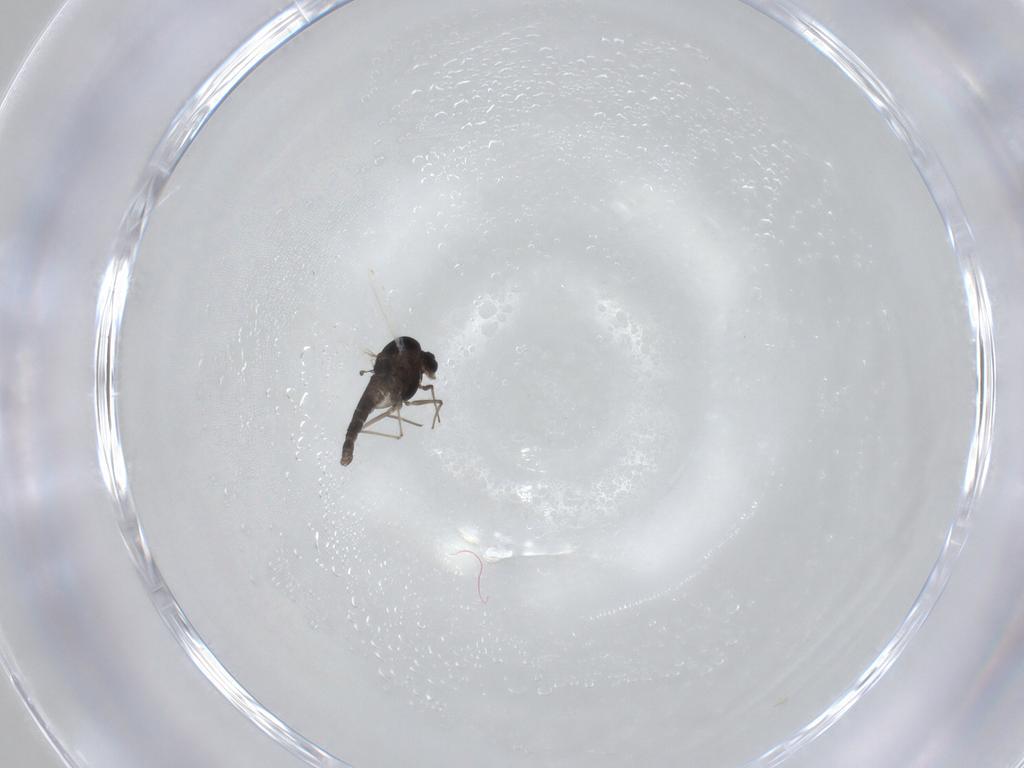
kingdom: Animalia
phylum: Arthropoda
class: Insecta
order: Diptera
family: Chironomidae
